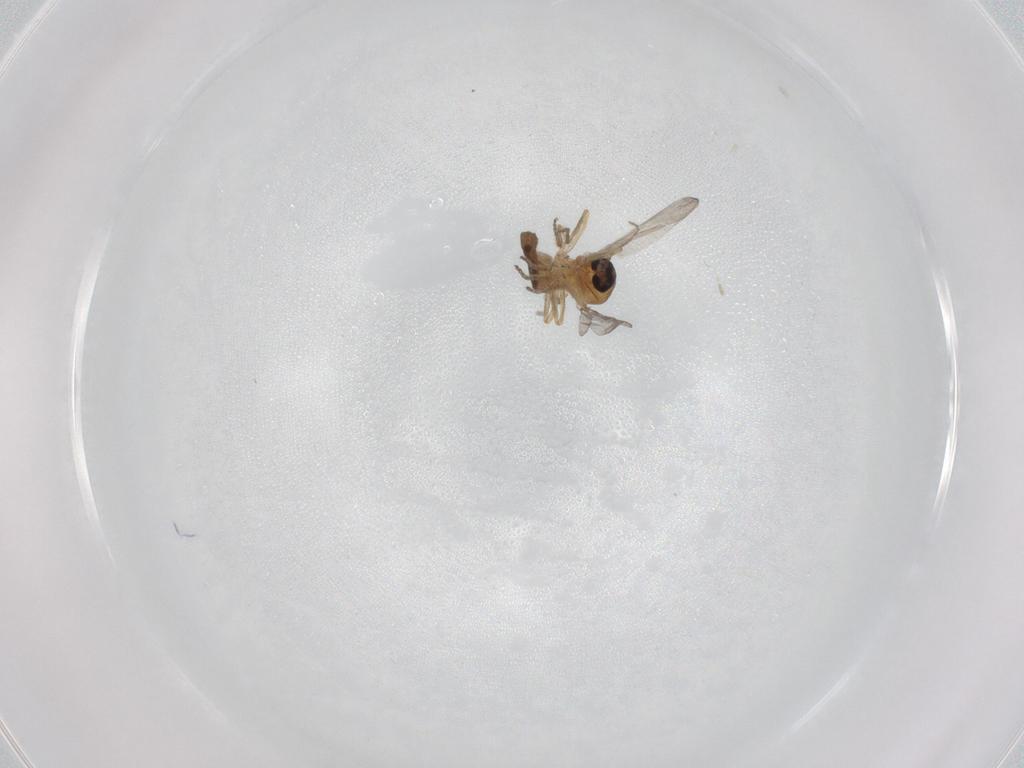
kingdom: Animalia
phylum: Arthropoda
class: Insecta
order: Diptera
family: Ceratopogonidae
